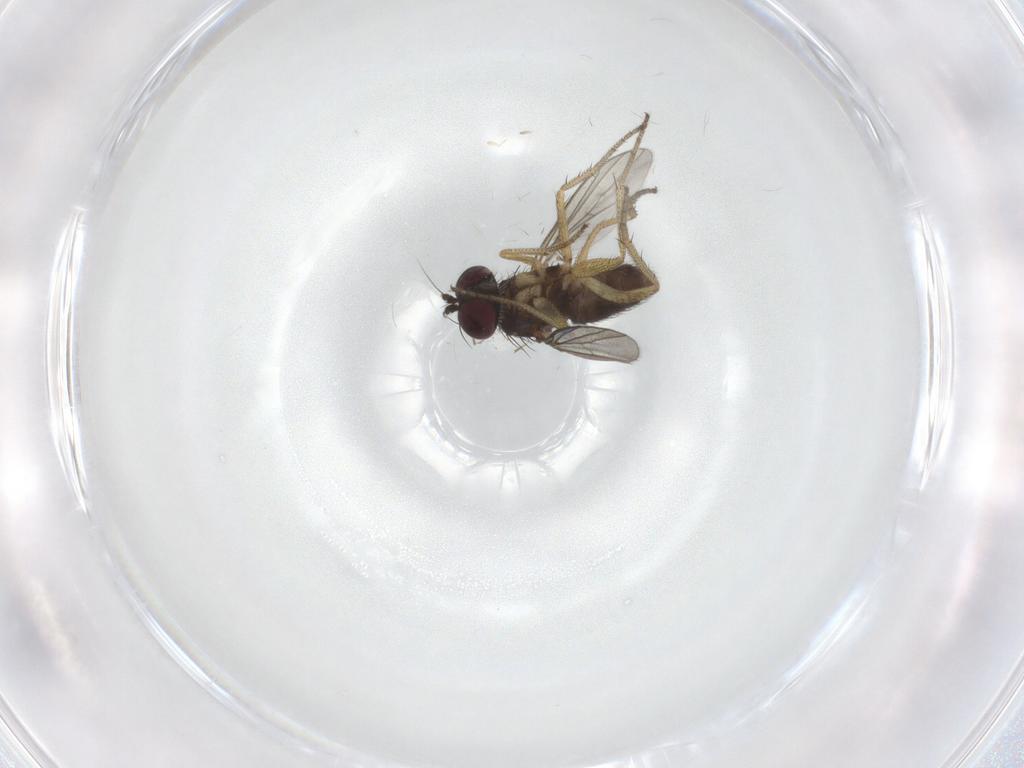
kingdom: Animalia
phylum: Arthropoda
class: Insecta
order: Diptera
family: Dolichopodidae
